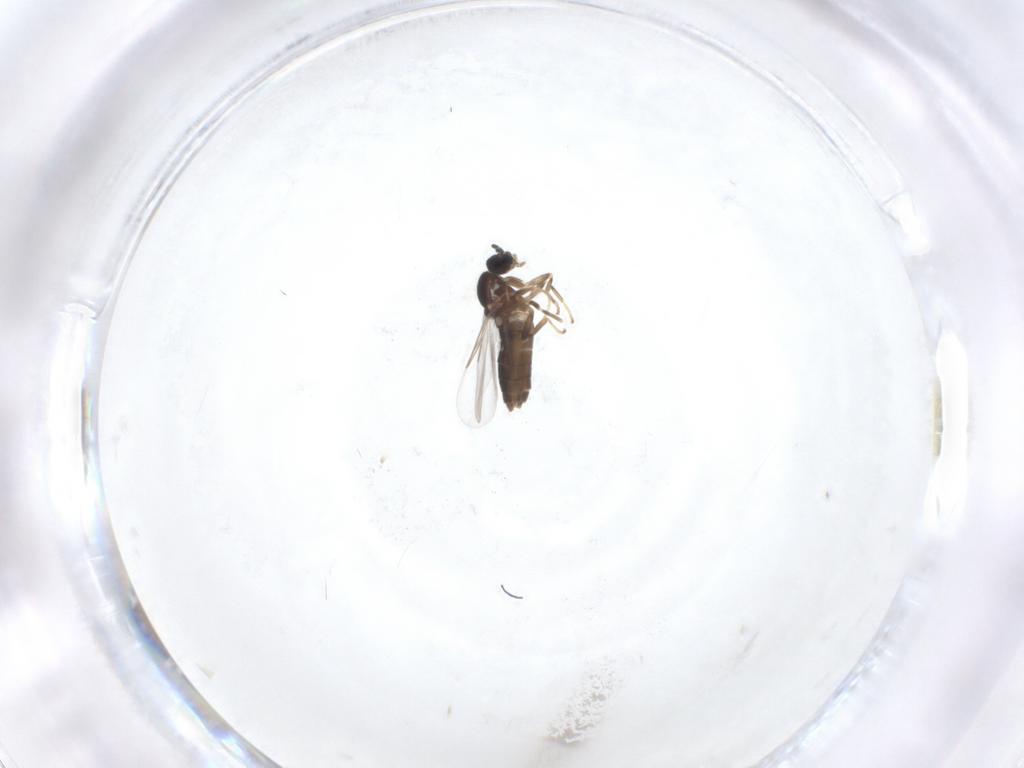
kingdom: Animalia
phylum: Arthropoda
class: Insecta
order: Diptera
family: Scatopsidae
